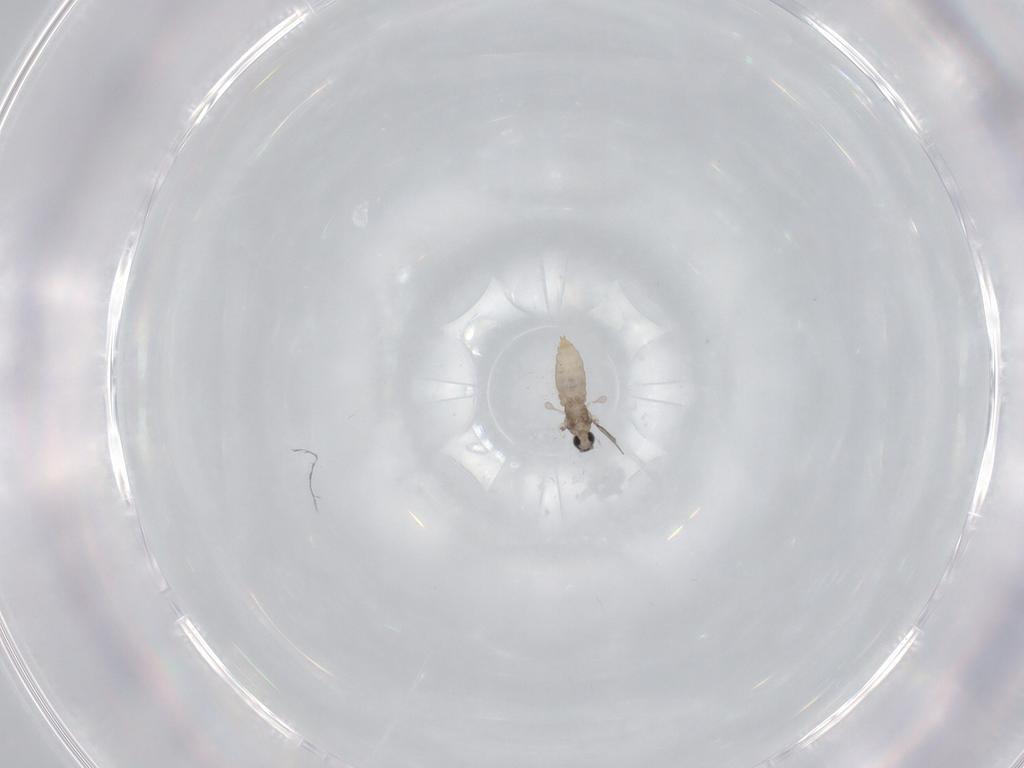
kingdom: Animalia
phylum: Arthropoda
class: Insecta
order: Diptera
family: Cecidomyiidae
